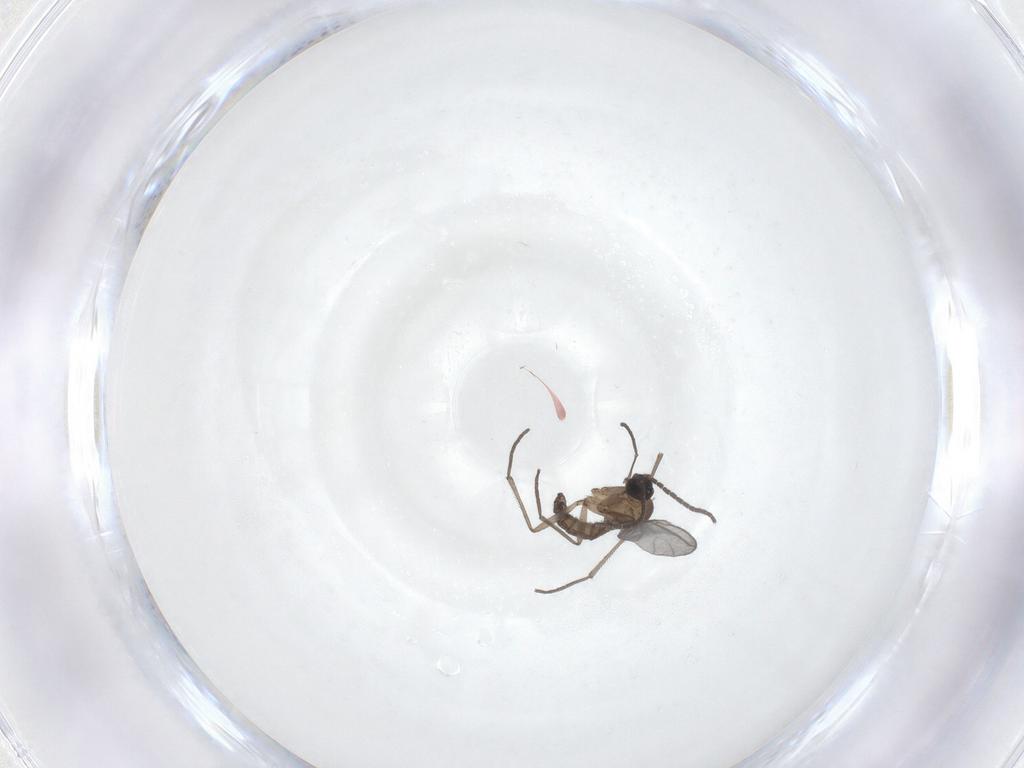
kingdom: Animalia
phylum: Arthropoda
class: Insecta
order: Diptera
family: Sciaridae
